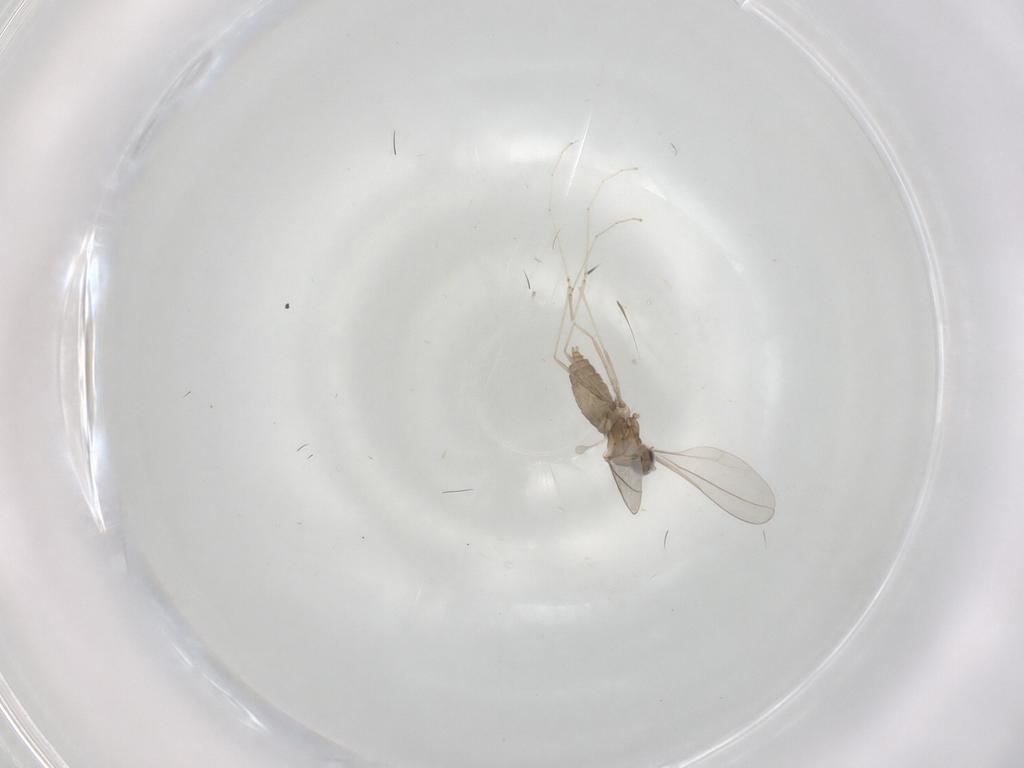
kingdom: Animalia
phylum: Arthropoda
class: Insecta
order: Diptera
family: Cecidomyiidae
